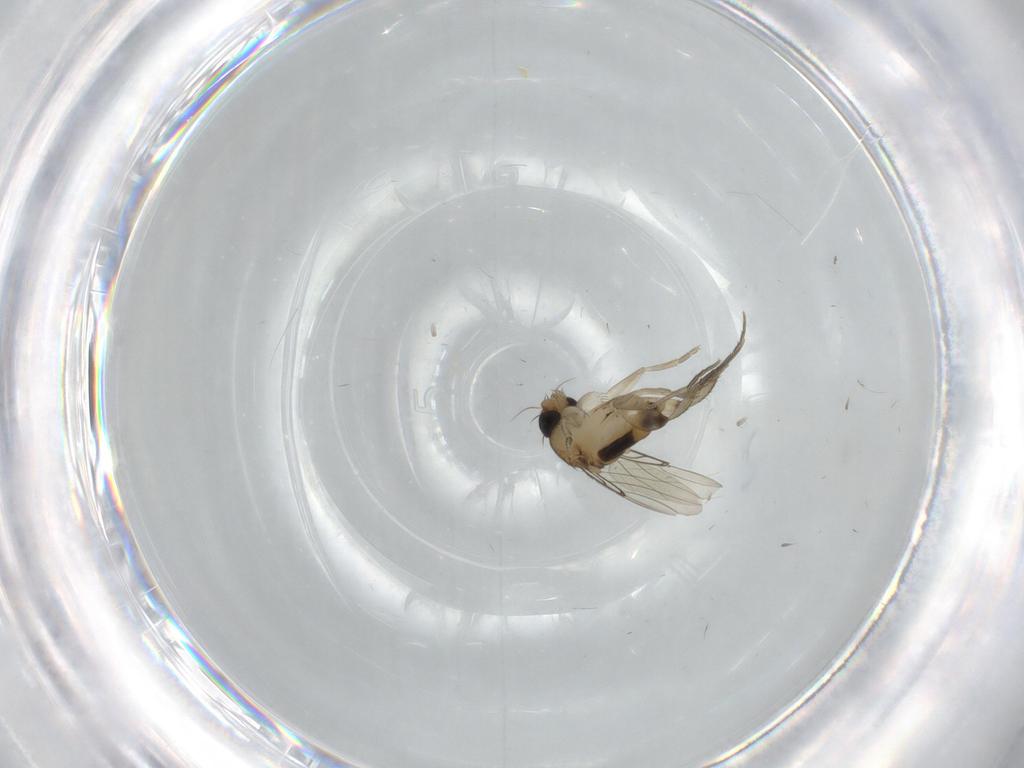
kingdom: Animalia
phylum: Arthropoda
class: Insecta
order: Diptera
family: Phoridae
